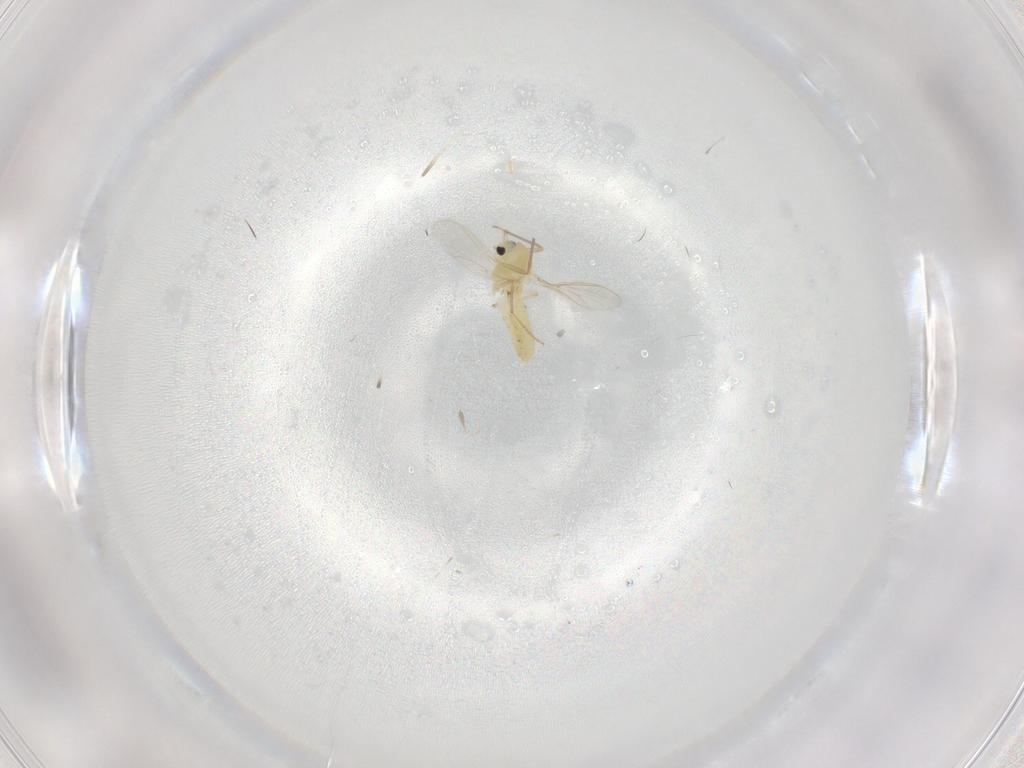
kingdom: Animalia
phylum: Arthropoda
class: Insecta
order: Diptera
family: Chironomidae
